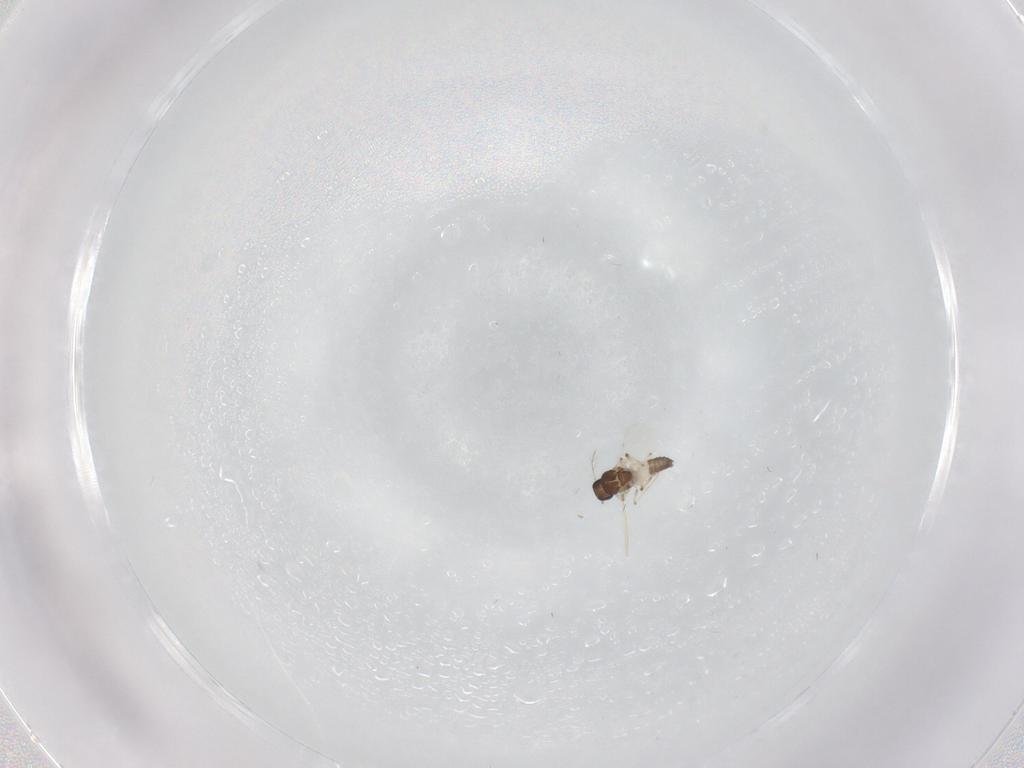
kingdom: Animalia
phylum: Arthropoda
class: Insecta
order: Diptera
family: Ceratopogonidae
